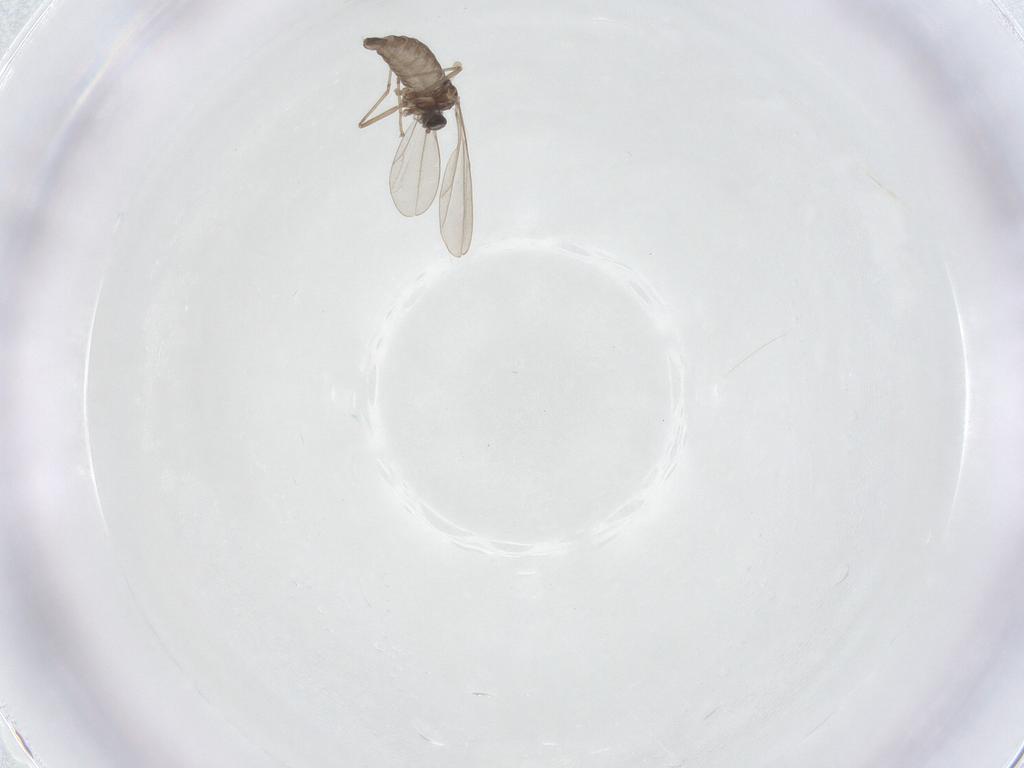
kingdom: Animalia
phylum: Arthropoda
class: Insecta
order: Diptera
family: Cecidomyiidae
